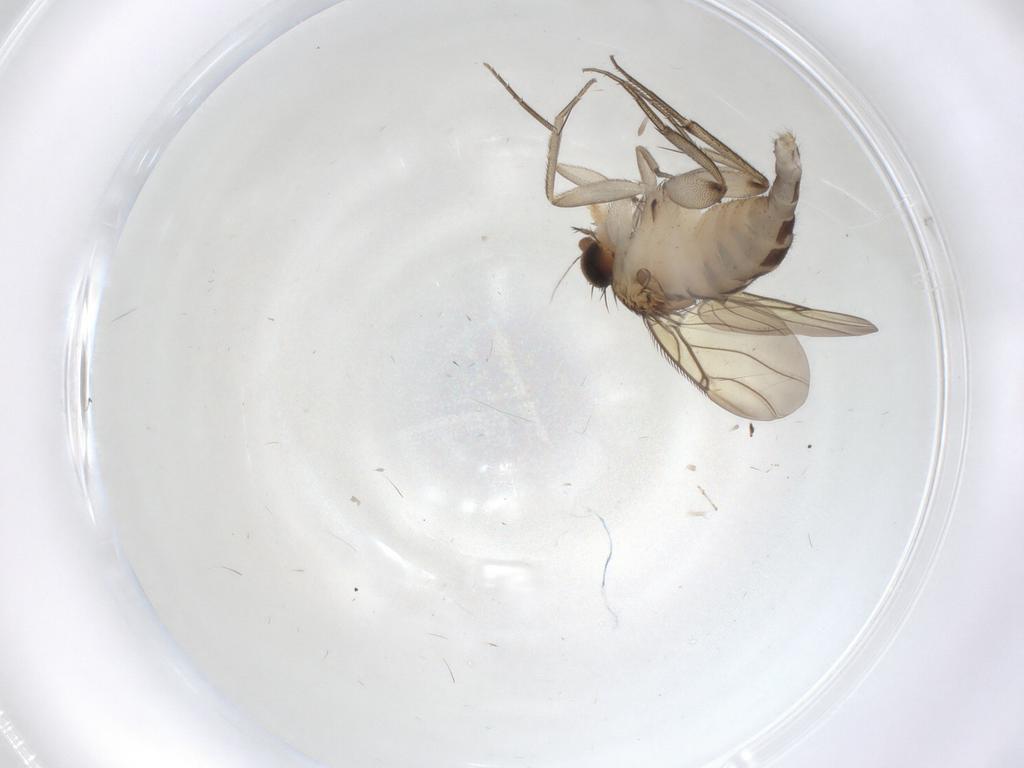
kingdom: Animalia
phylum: Arthropoda
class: Insecta
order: Diptera
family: Phoridae
